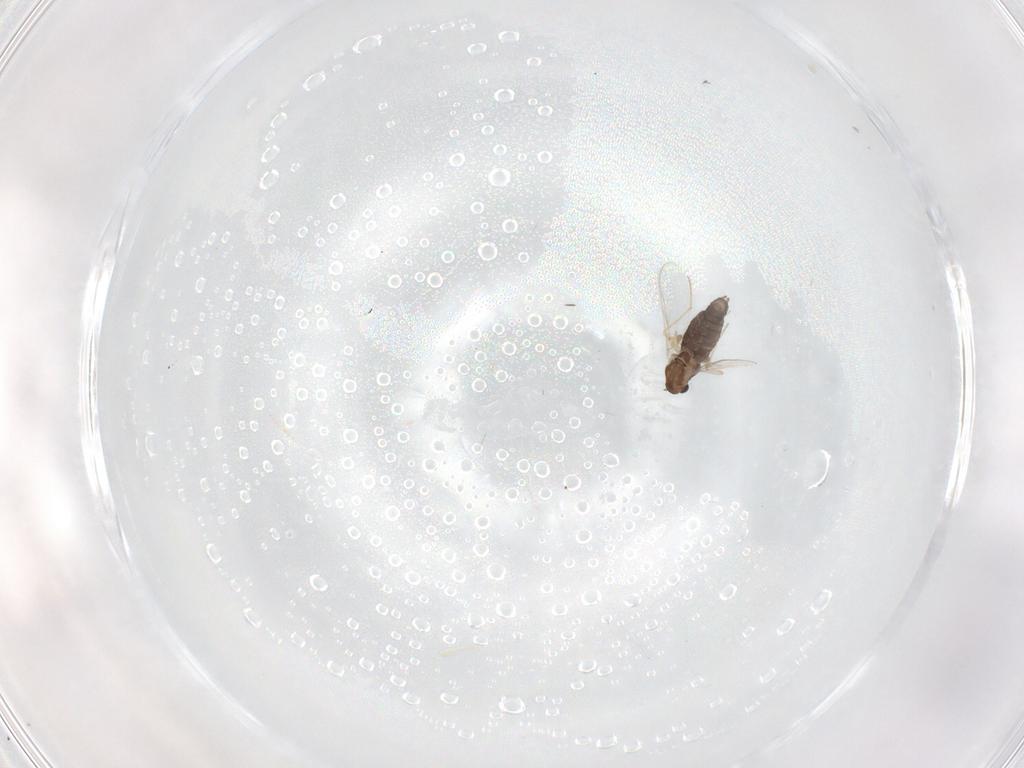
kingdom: Animalia
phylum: Arthropoda
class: Insecta
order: Diptera
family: Chironomidae
